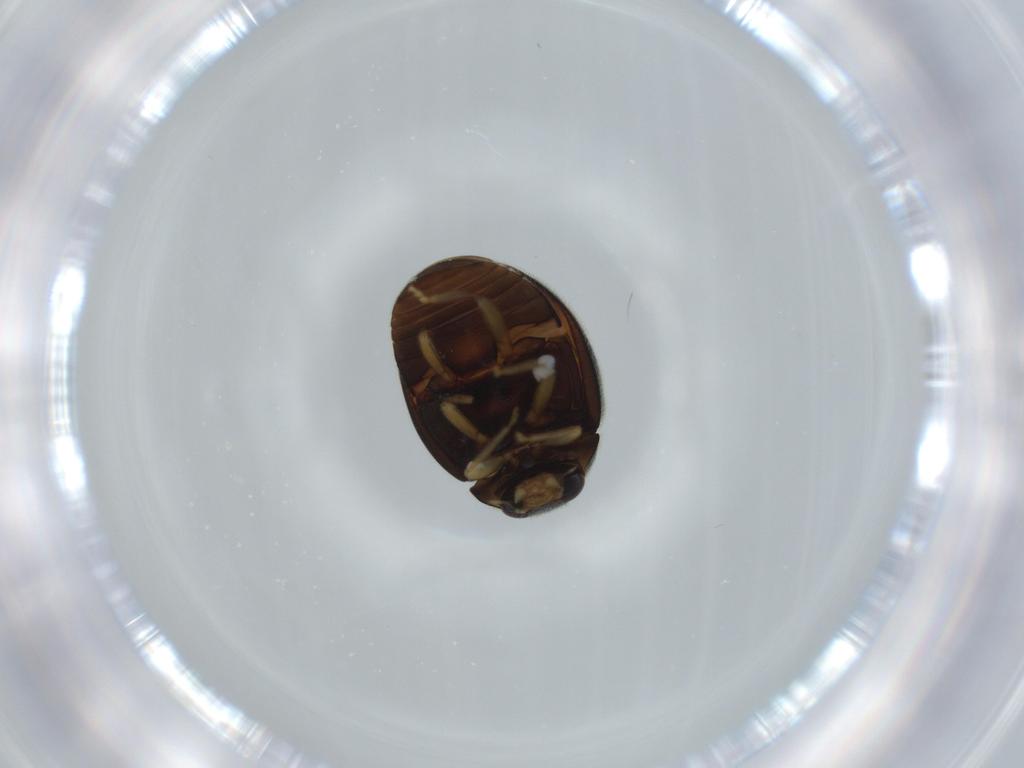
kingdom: Animalia
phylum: Arthropoda
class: Insecta
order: Coleoptera
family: Coccinellidae
